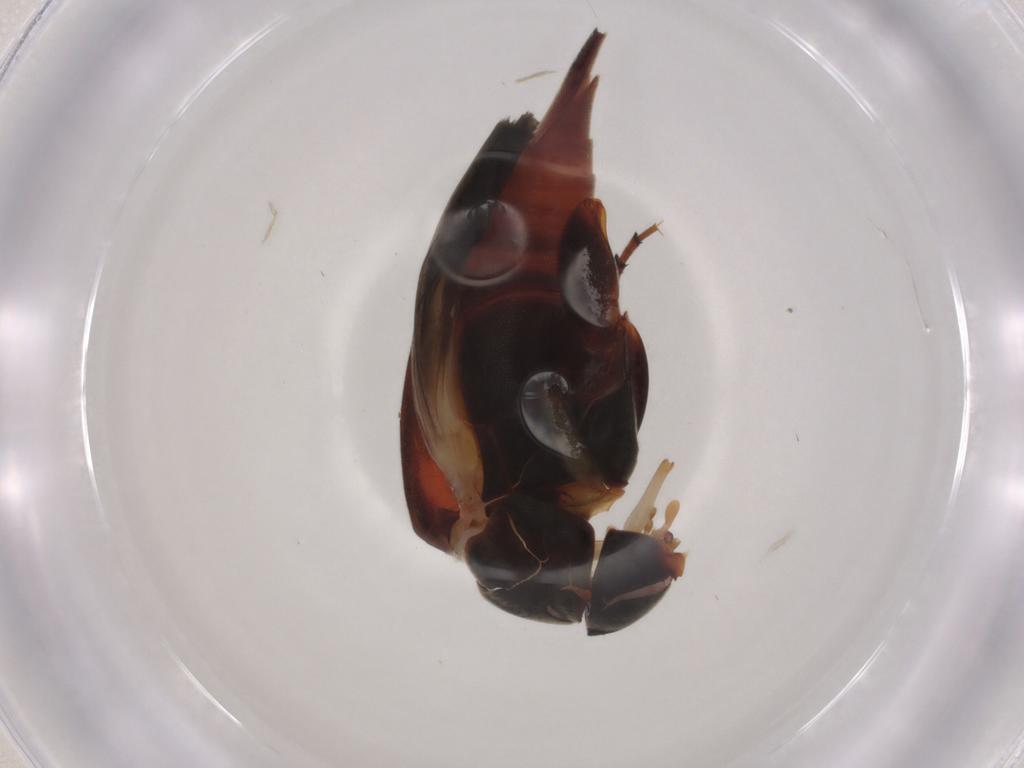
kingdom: Animalia
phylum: Arthropoda
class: Insecta
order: Coleoptera
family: Mordellidae
